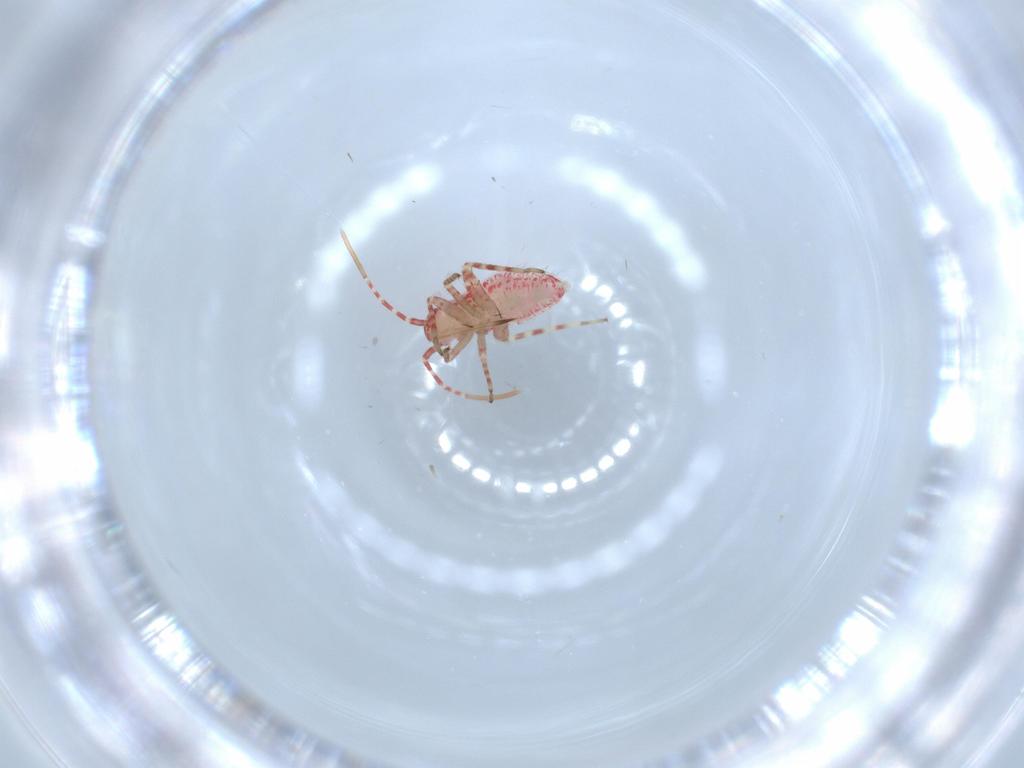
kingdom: Animalia
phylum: Arthropoda
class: Insecta
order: Hemiptera
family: Miridae
